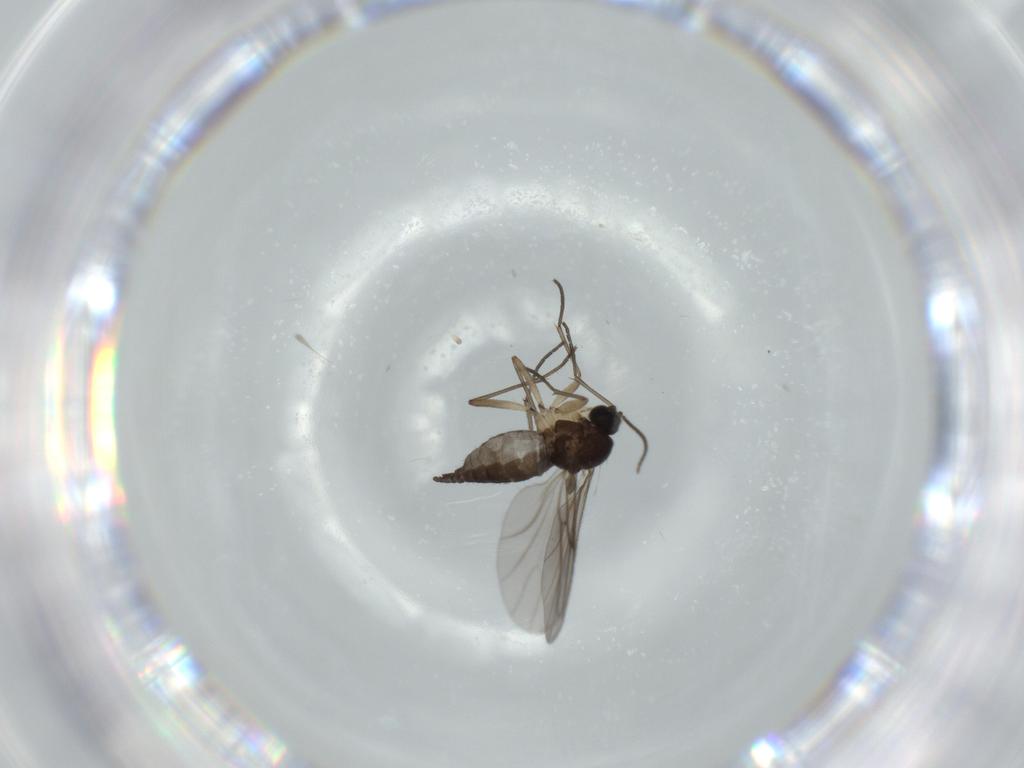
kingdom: Animalia
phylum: Arthropoda
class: Insecta
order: Diptera
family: Sciaridae
